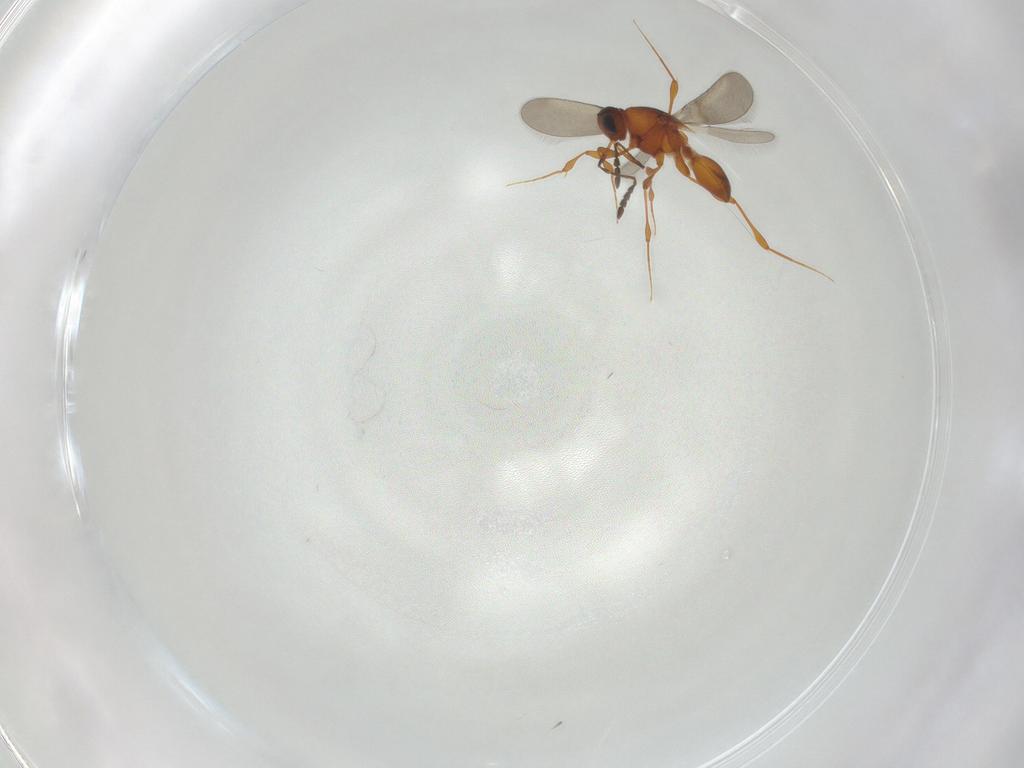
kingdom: Animalia
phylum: Arthropoda
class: Insecta
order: Hymenoptera
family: Platygastridae
